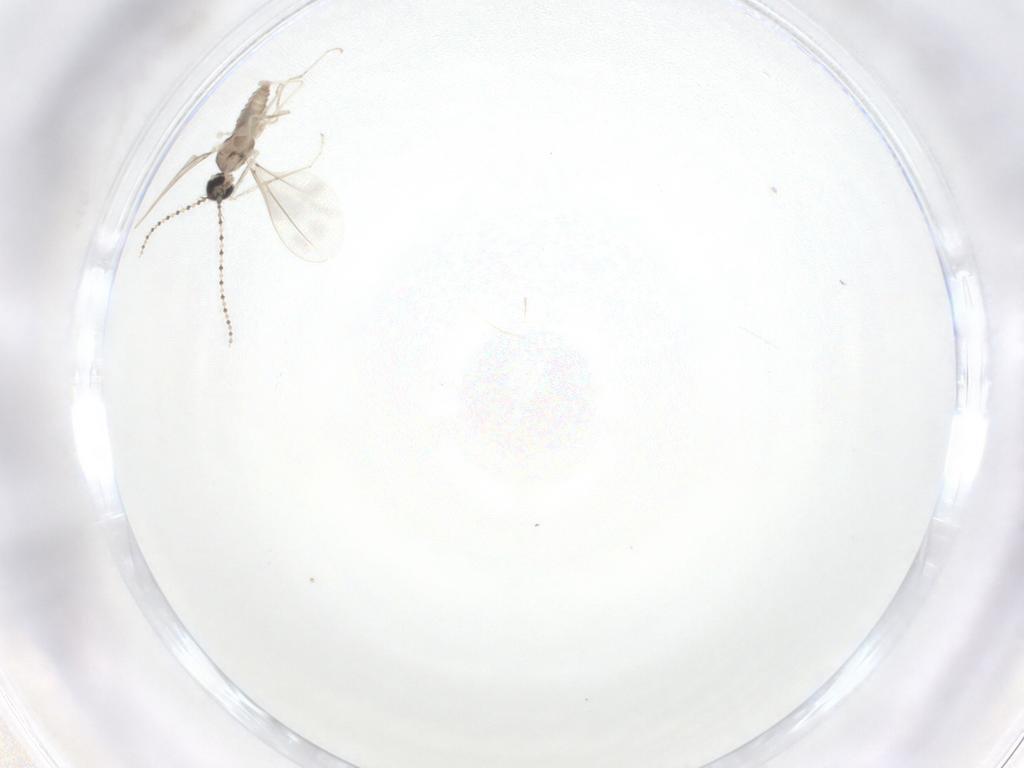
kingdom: Animalia
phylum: Arthropoda
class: Insecta
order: Diptera
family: Cecidomyiidae
